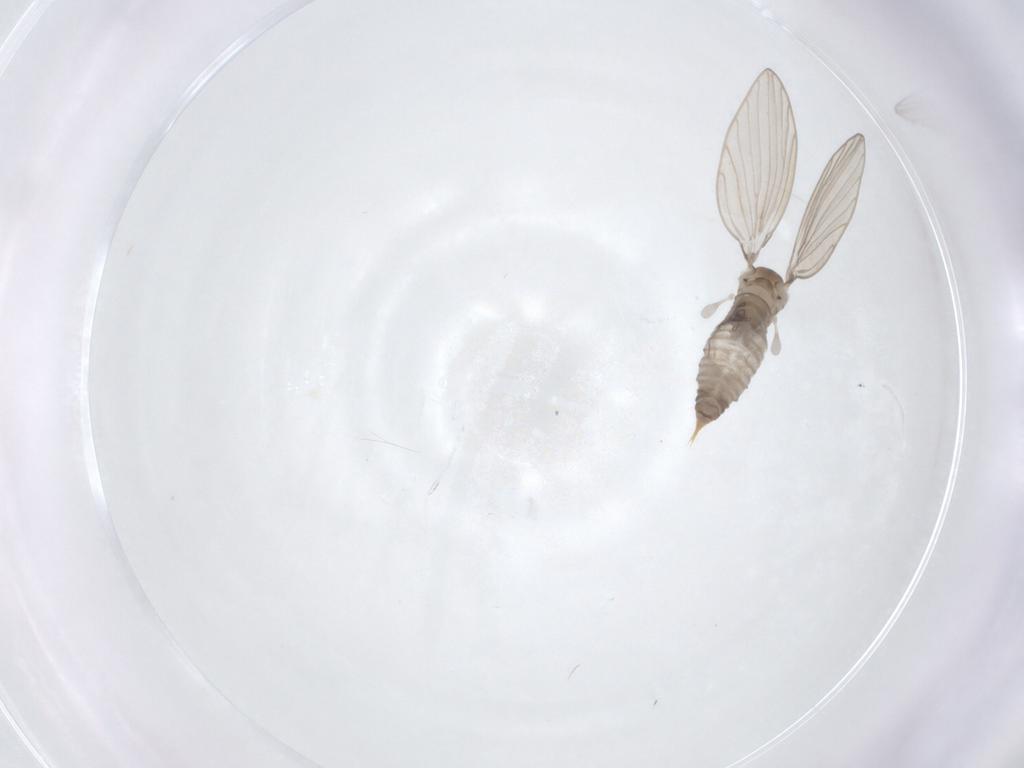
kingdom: Animalia
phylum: Arthropoda
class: Insecta
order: Diptera
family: Psychodidae
